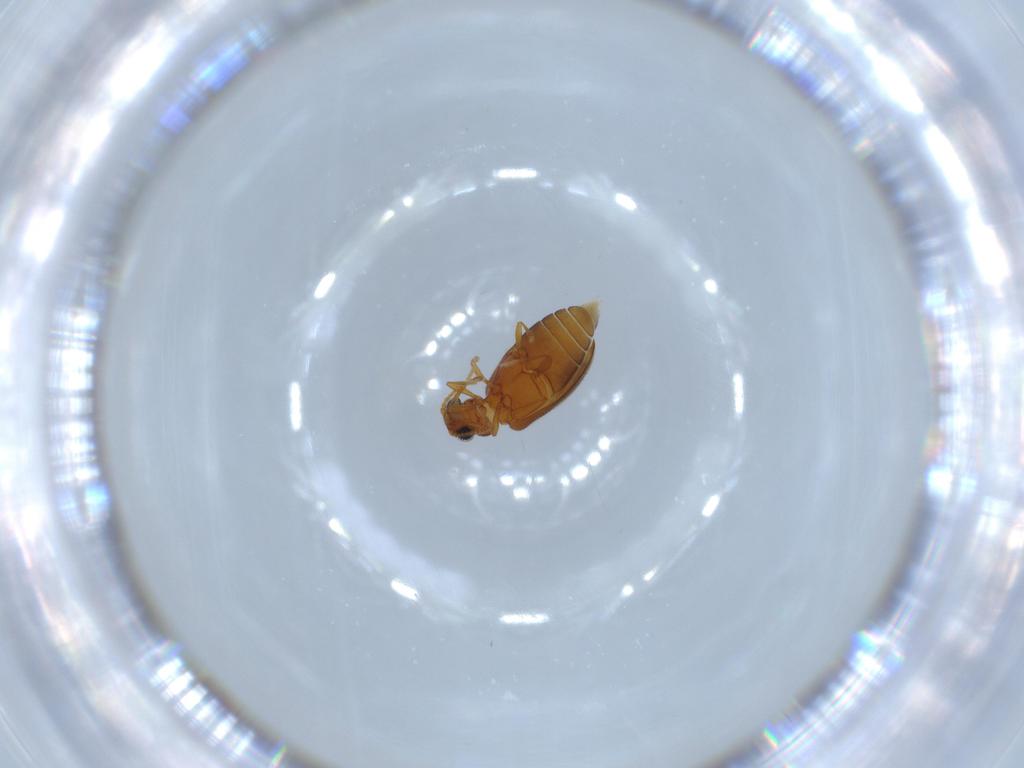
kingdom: Animalia
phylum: Arthropoda
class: Insecta
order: Coleoptera
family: Aderidae
